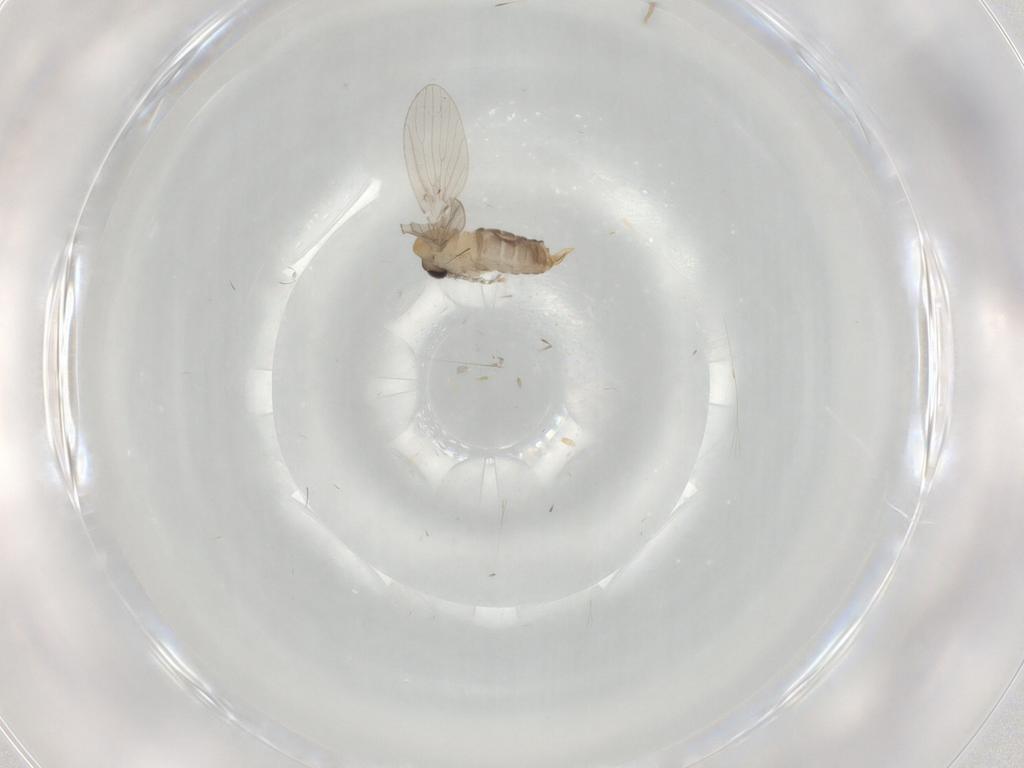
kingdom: Animalia
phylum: Arthropoda
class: Insecta
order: Diptera
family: Psychodidae
